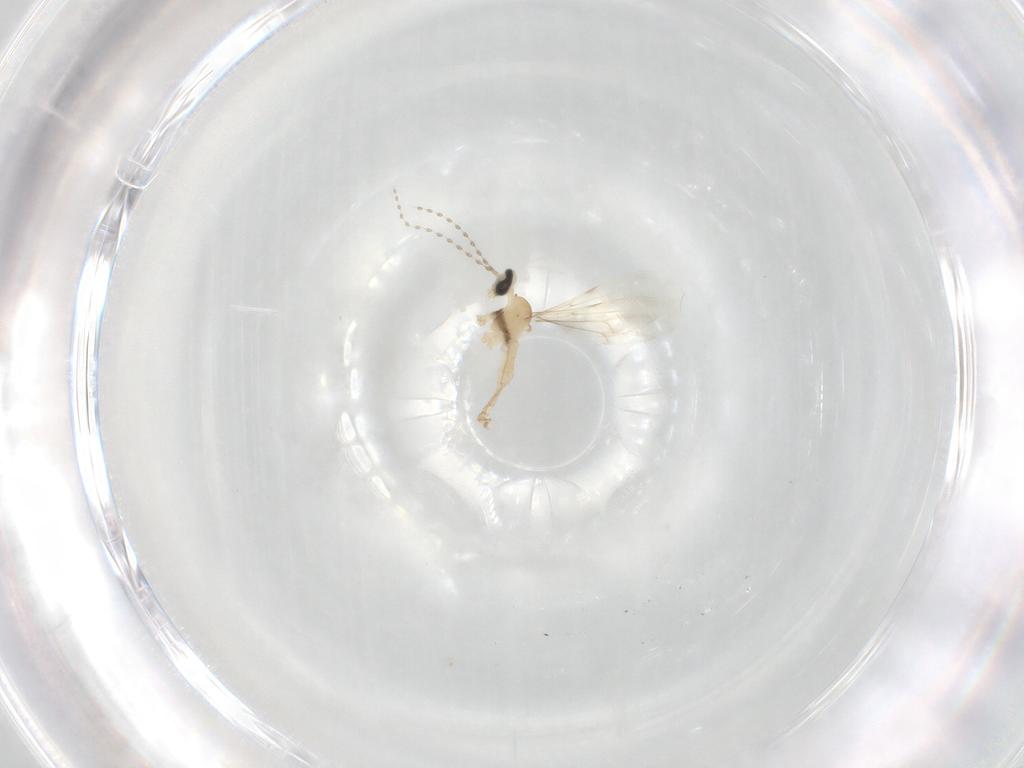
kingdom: Animalia
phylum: Arthropoda
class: Insecta
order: Diptera
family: Cecidomyiidae
